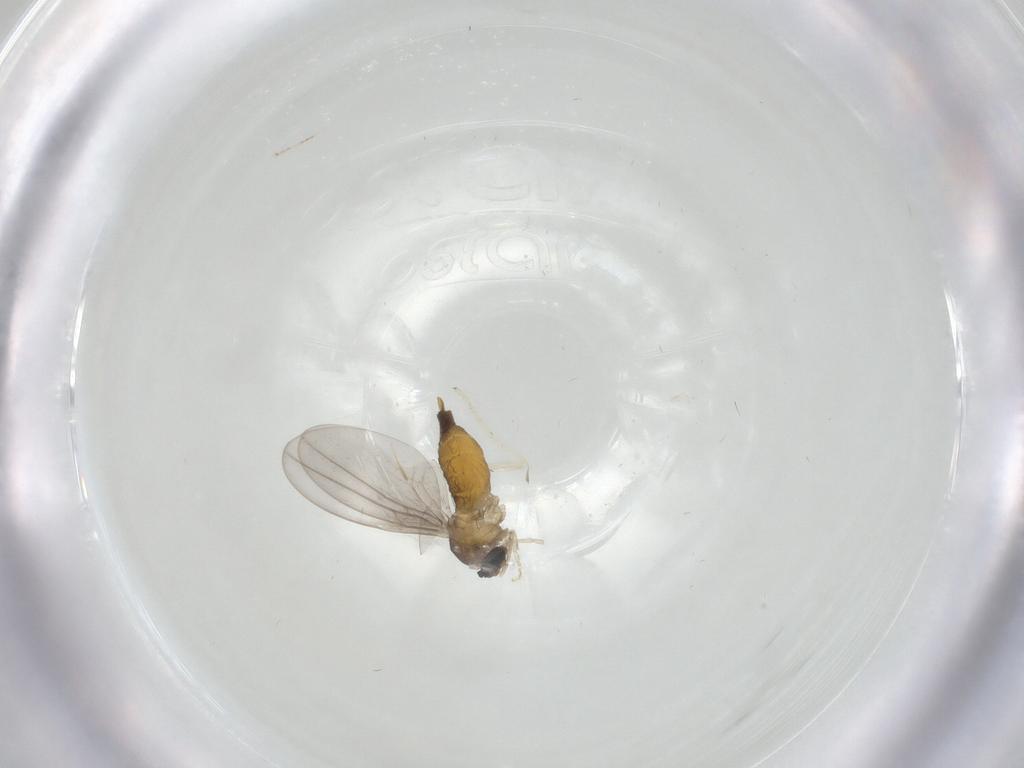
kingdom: Animalia
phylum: Arthropoda
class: Insecta
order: Diptera
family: Cecidomyiidae
